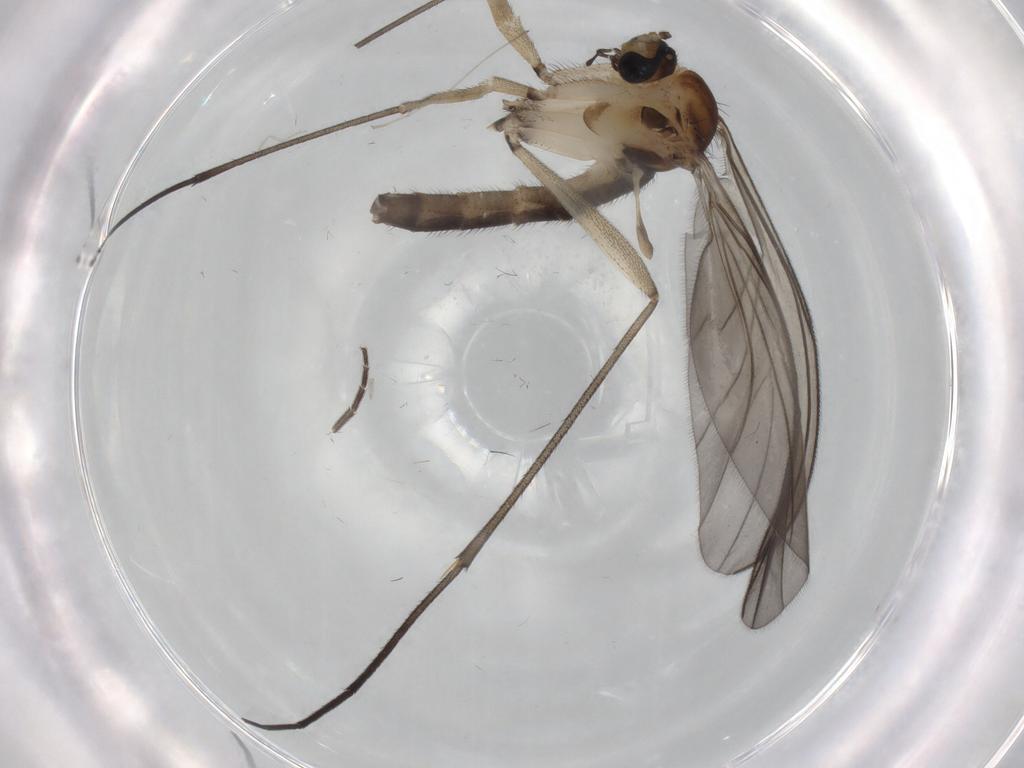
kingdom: Animalia
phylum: Arthropoda
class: Insecta
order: Diptera
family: Sciaridae
